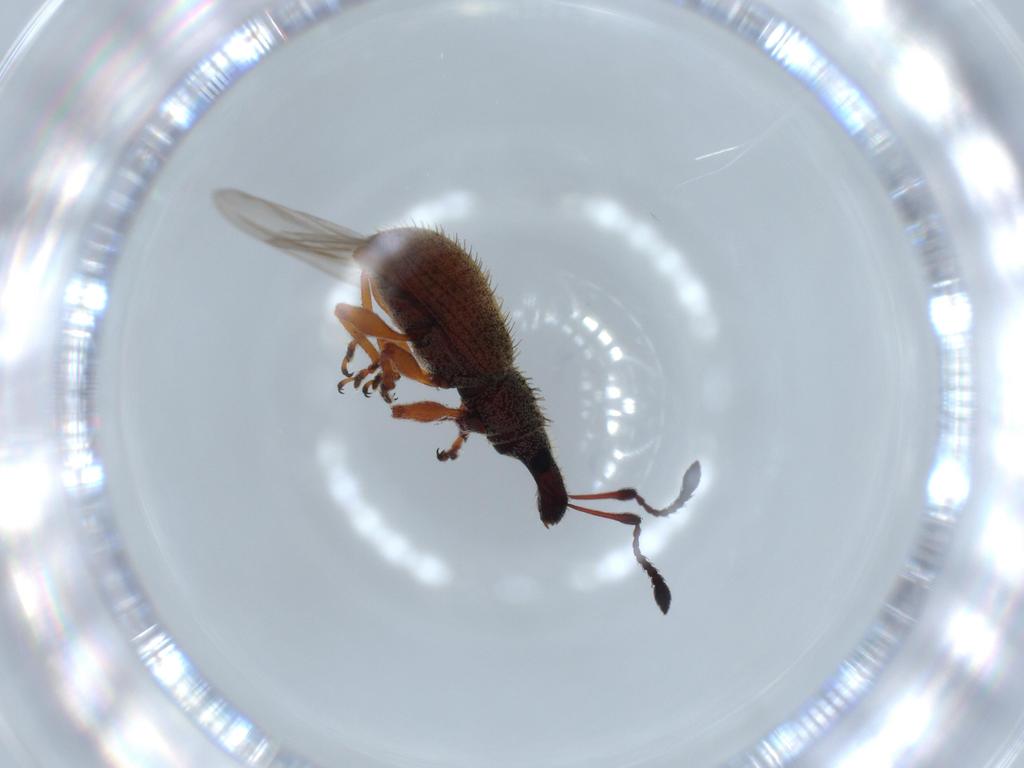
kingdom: Animalia
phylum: Arthropoda
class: Insecta
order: Coleoptera
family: Curculionidae
